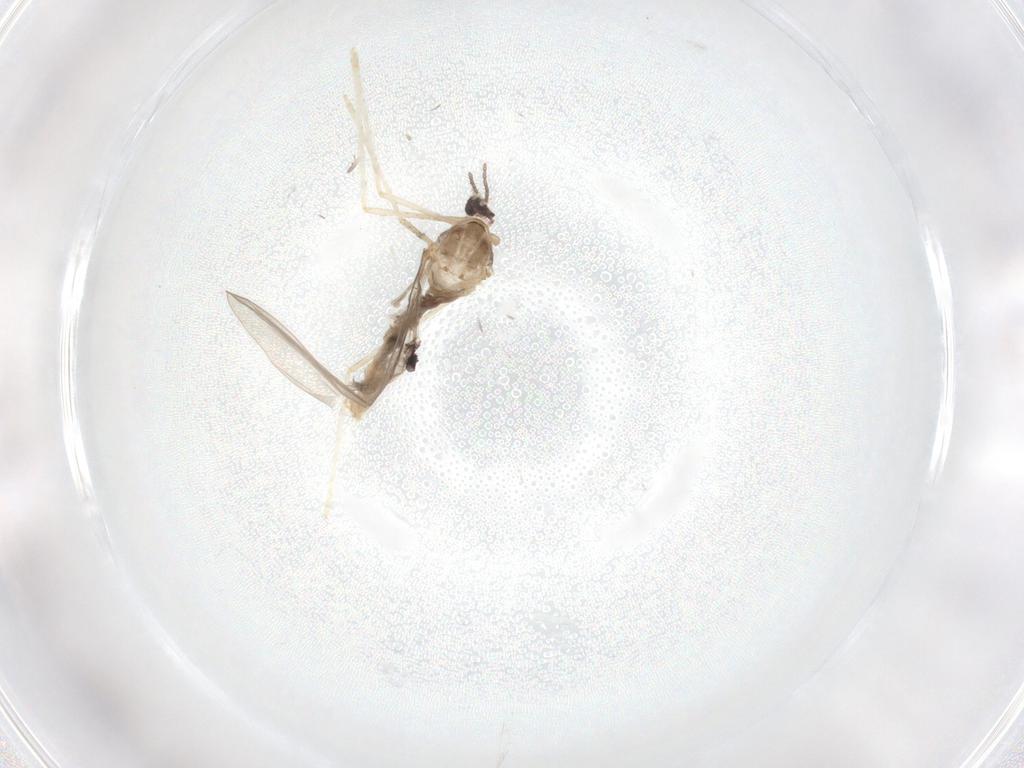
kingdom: Animalia
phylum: Arthropoda
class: Insecta
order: Diptera
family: Cecidomyiidae
